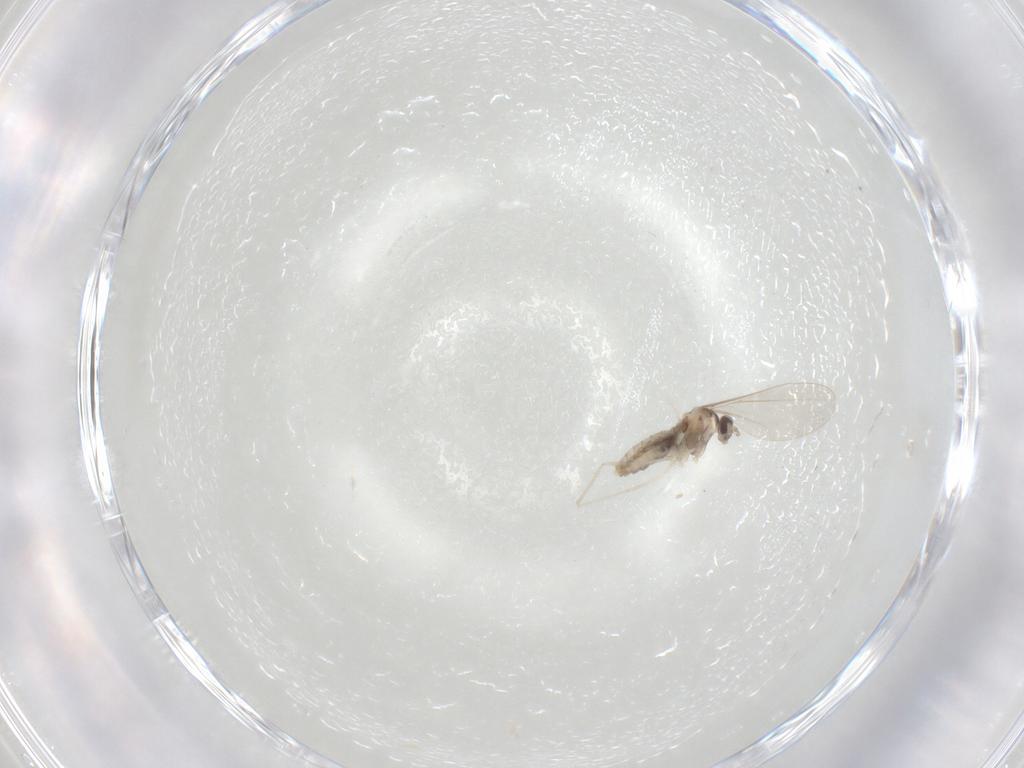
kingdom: Animalia
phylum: Arthropoda
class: Insecta
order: Diptera
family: Cecidomyiidae
